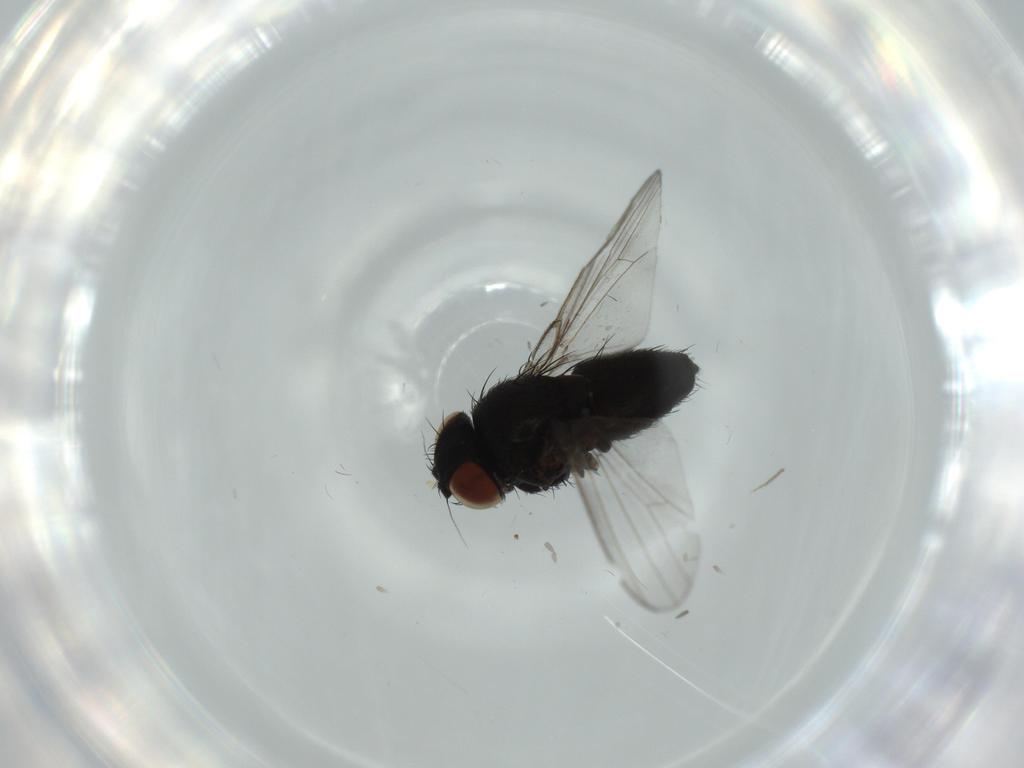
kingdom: Animalia
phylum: Arthropoda
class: Insecta
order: Diptera
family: Milichiidae
